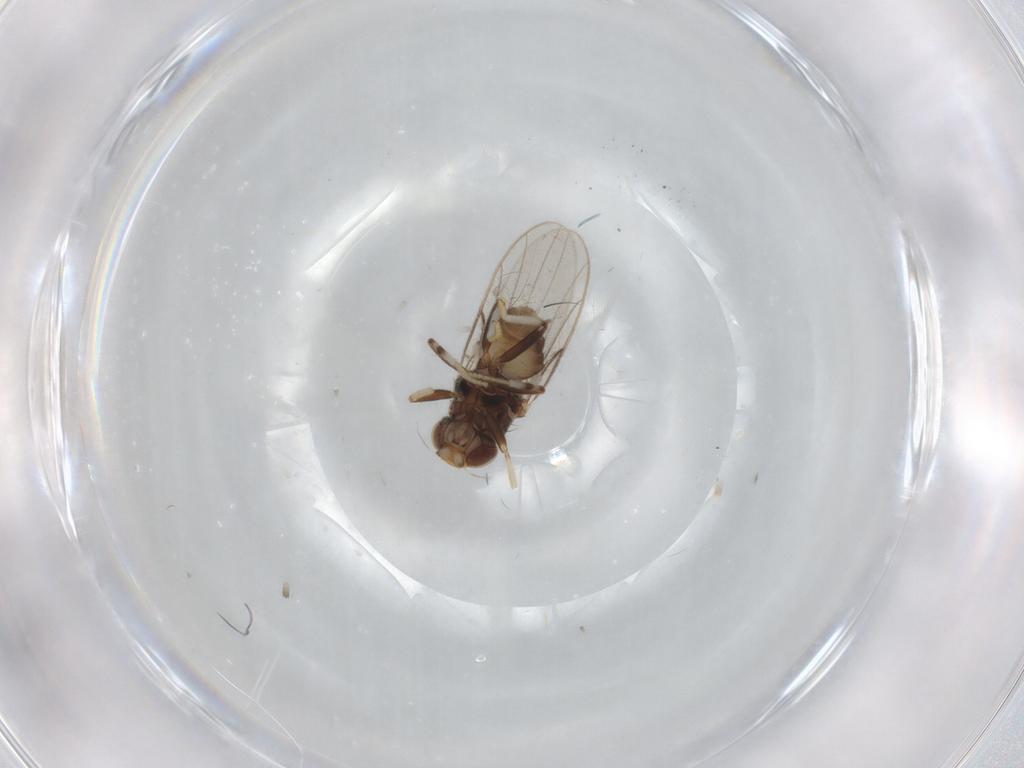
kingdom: Animalia
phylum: Arthropoda
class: Insecta
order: Diptera
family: Chloropidae
